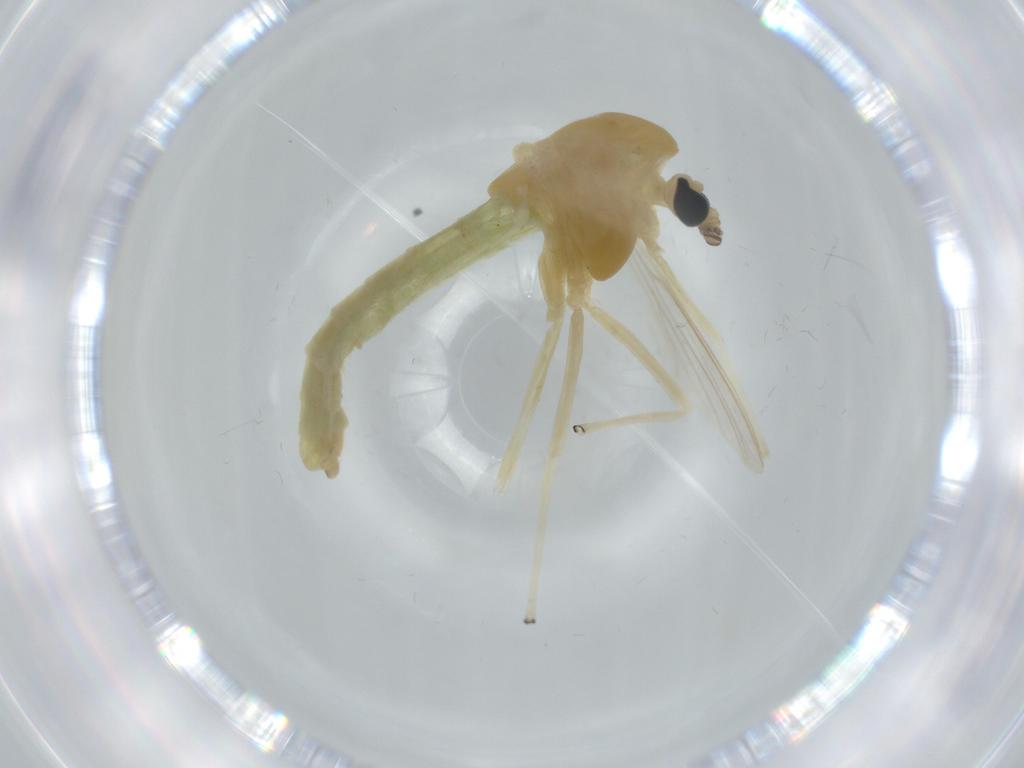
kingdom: Animalia
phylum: Arthropoda
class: Insecta
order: Diptera
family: Chironomidae
